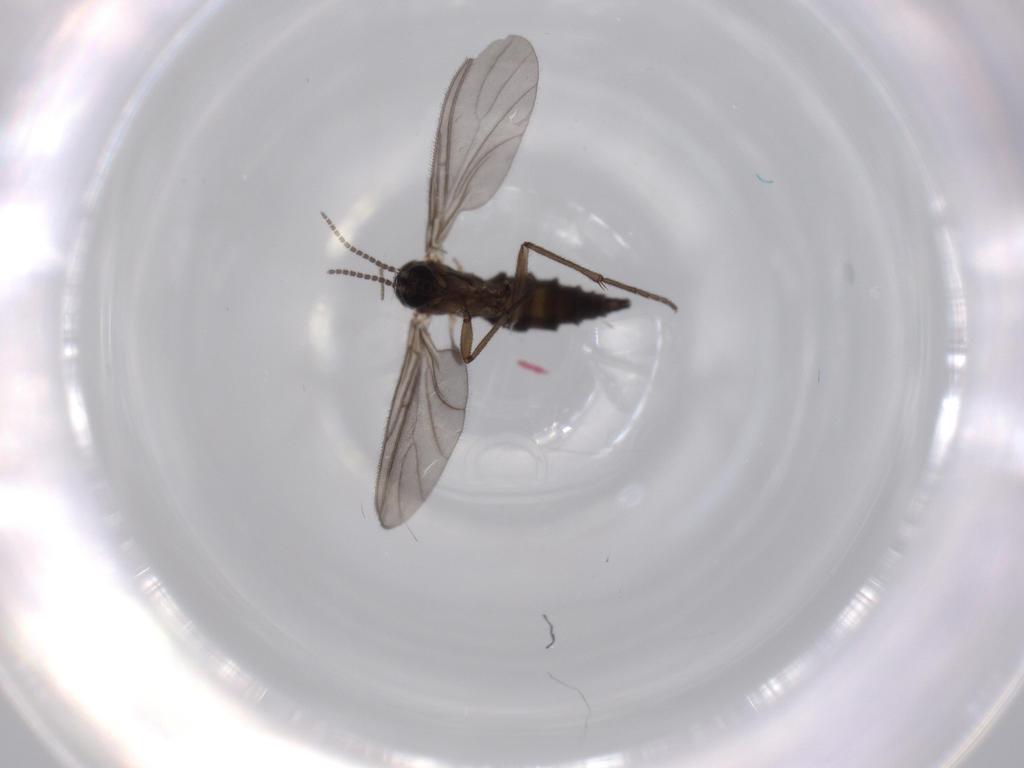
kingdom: Animalia
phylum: Arthropoda
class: Insecta
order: Diptera
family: Sciaridae
